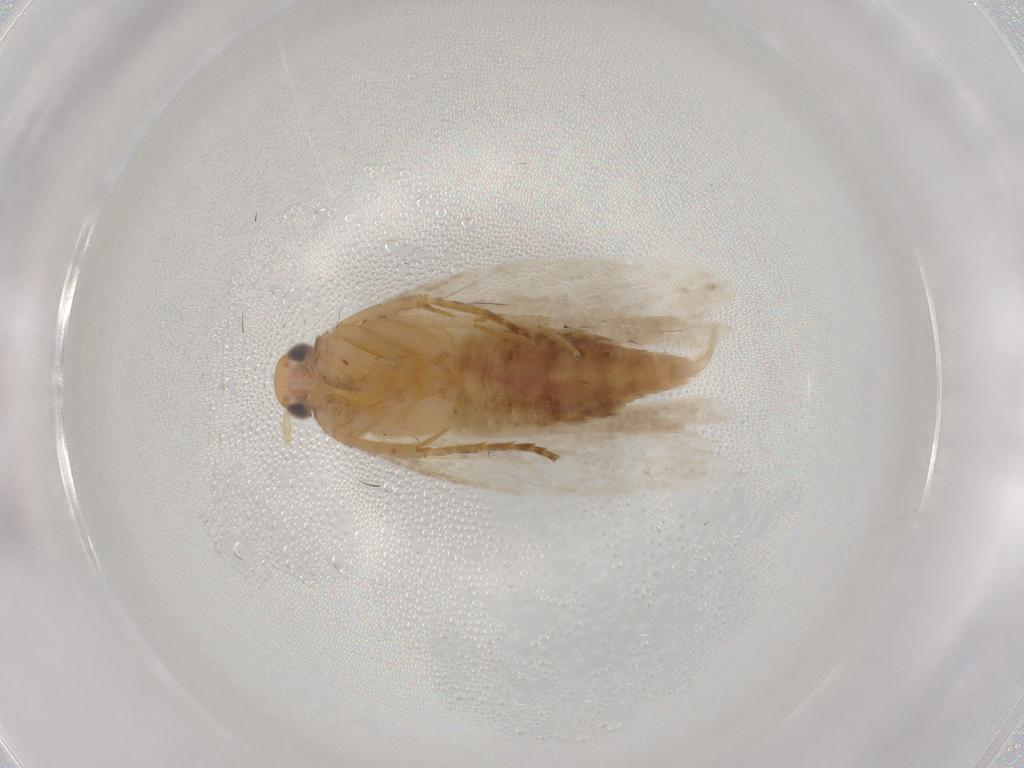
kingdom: Animalia
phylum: Arthropoda
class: Insecta
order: Lepidoptera
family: Gelechiidae
